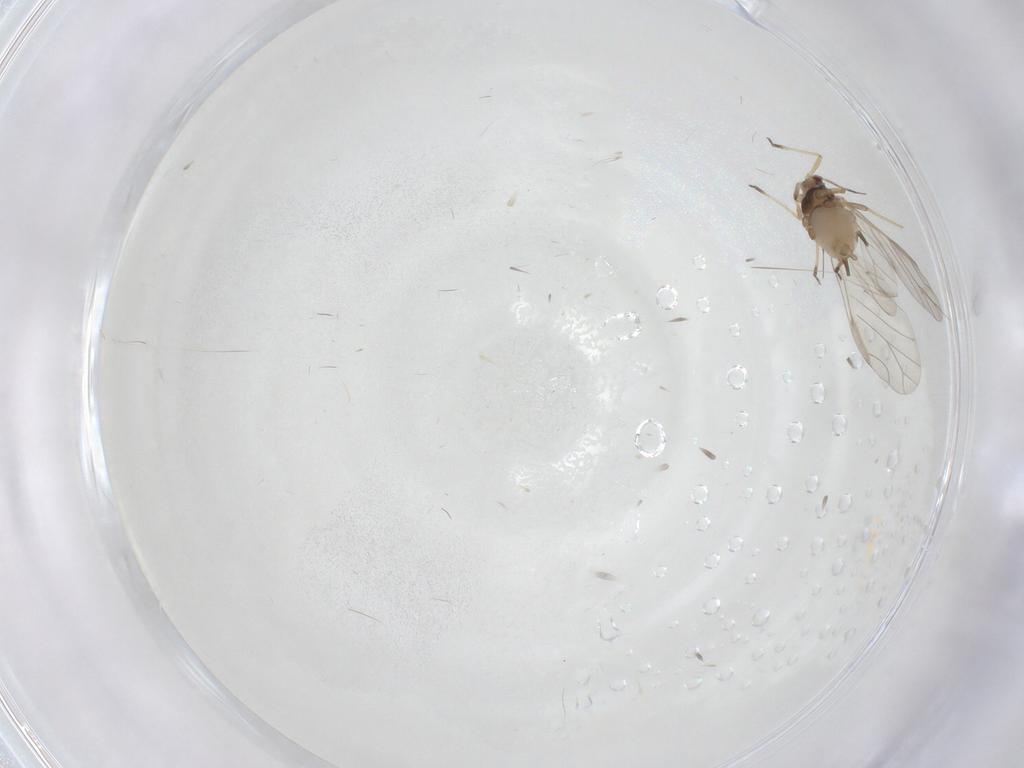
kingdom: Animalia
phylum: Arthropoda
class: Insecta
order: Hemiptera
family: Aphididae
